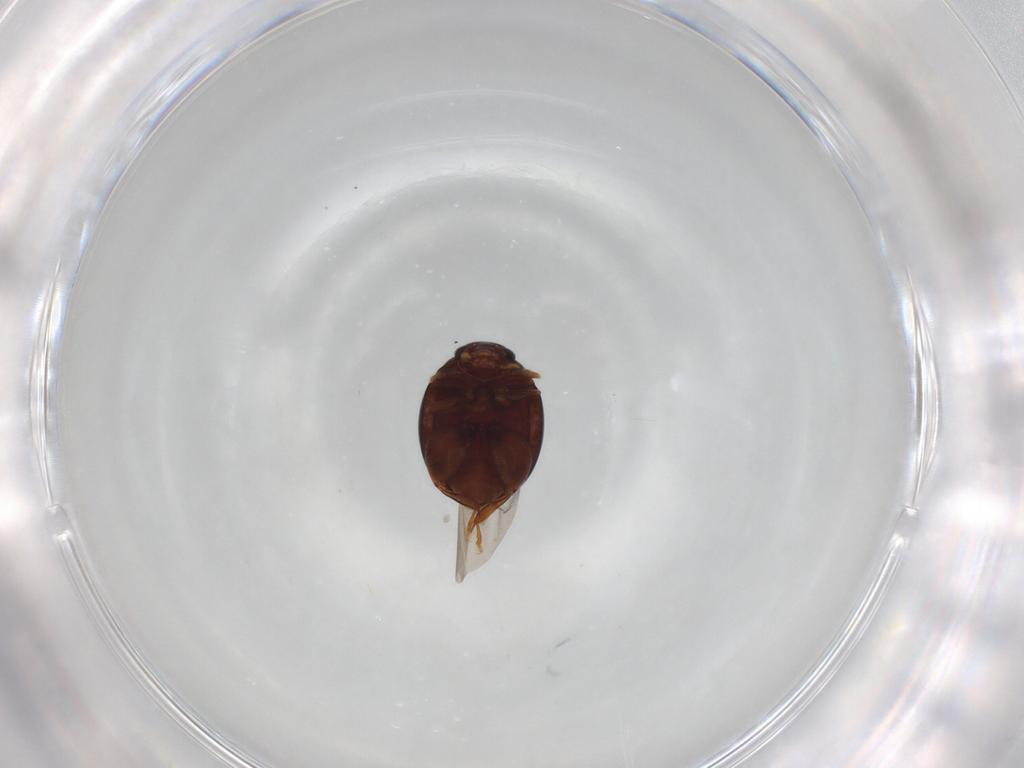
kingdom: Animalia
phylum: Arthropoda
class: Insecta
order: Coleoptera
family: Chrysomelidae
